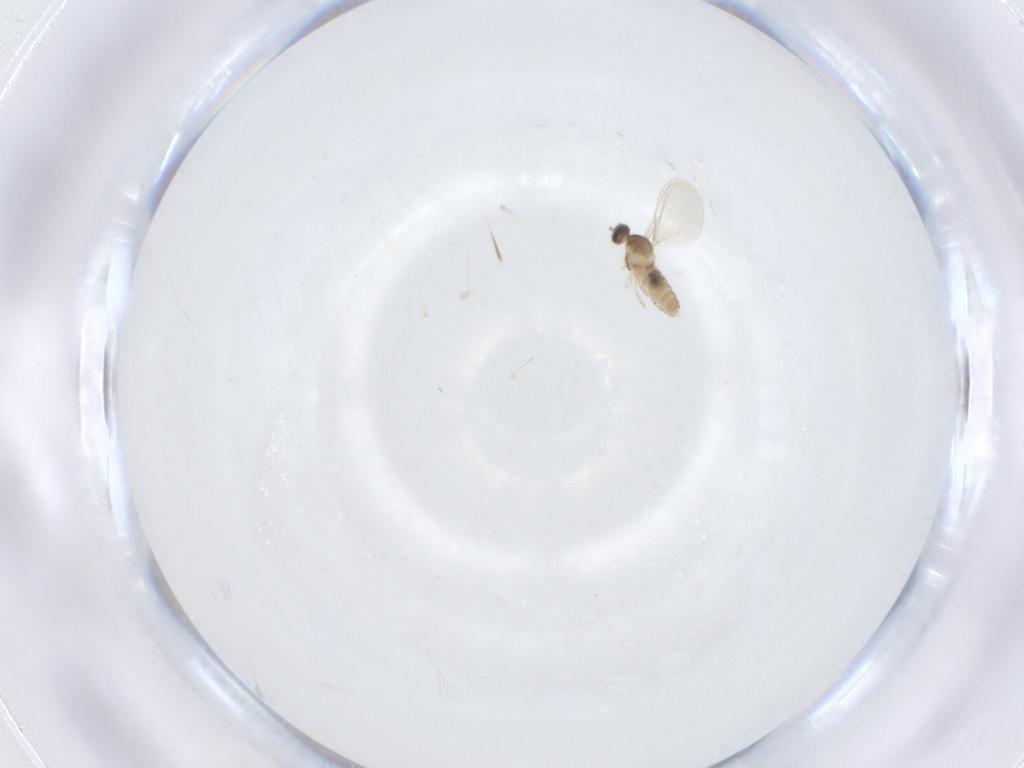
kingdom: Animalia
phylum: Arthropoda
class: Insecta
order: Diptera
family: Cecidomyiidae
